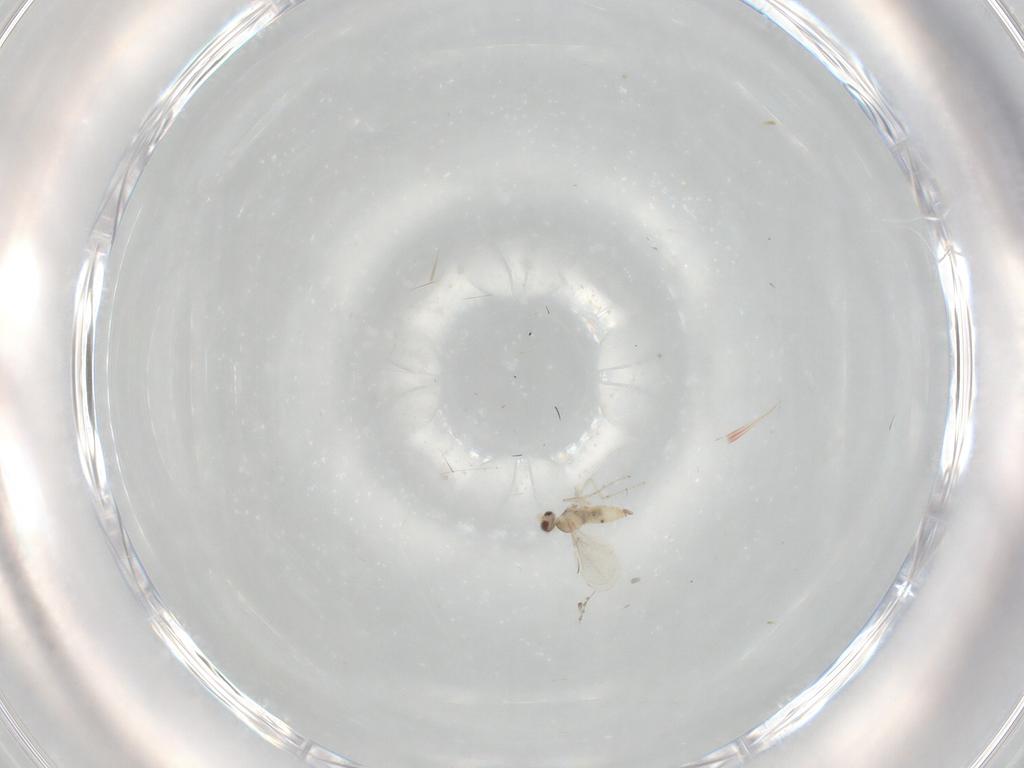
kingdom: Animalia
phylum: Arthropoda
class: Insecta
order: Diptera
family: Cecidomyiidae
